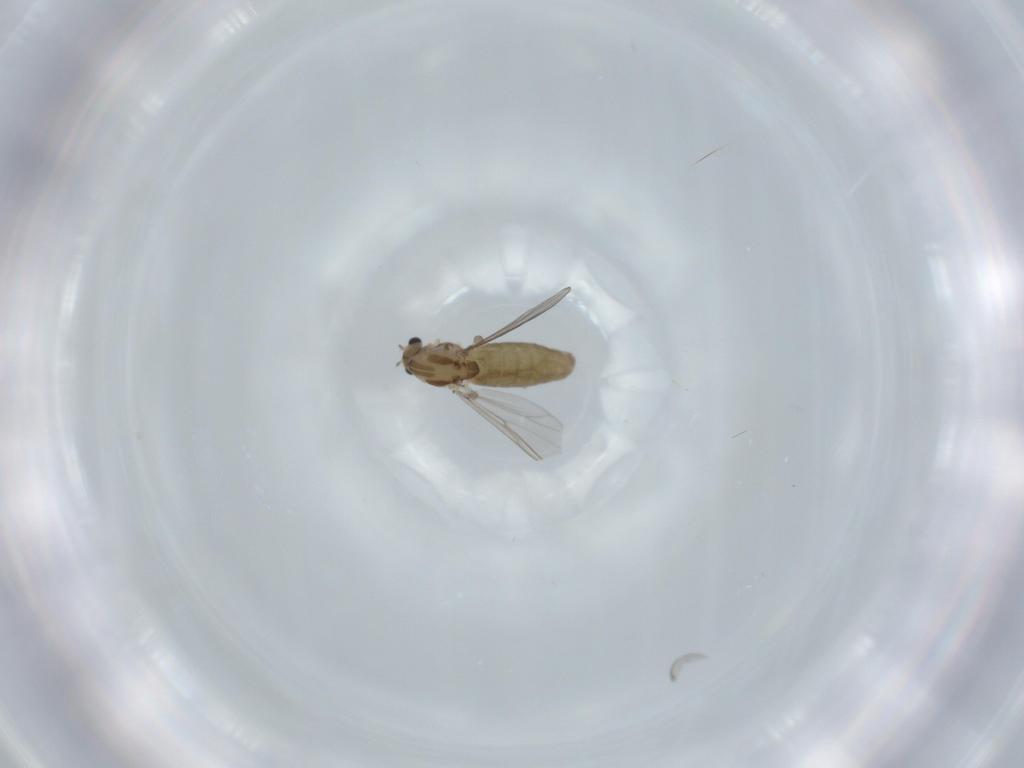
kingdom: Animalia
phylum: Arthropoda
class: Insecta
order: Diptera
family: Chironomidae
